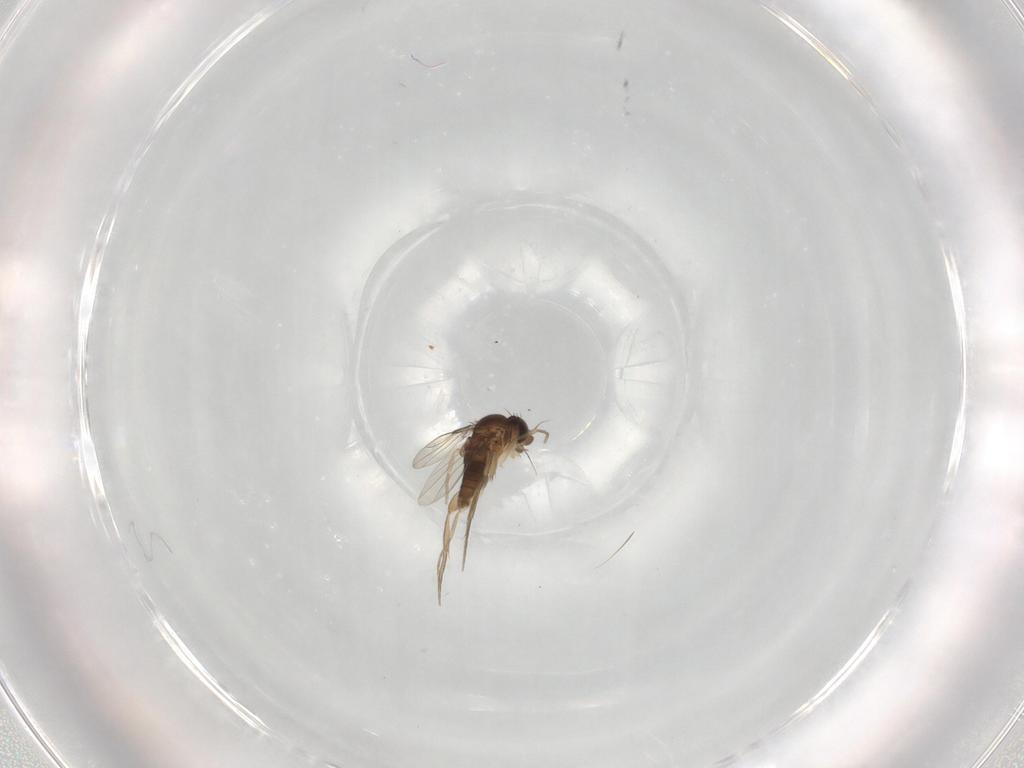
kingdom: Animalia
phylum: Arthropoda
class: Insecta
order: Diptera
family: Phoridae
